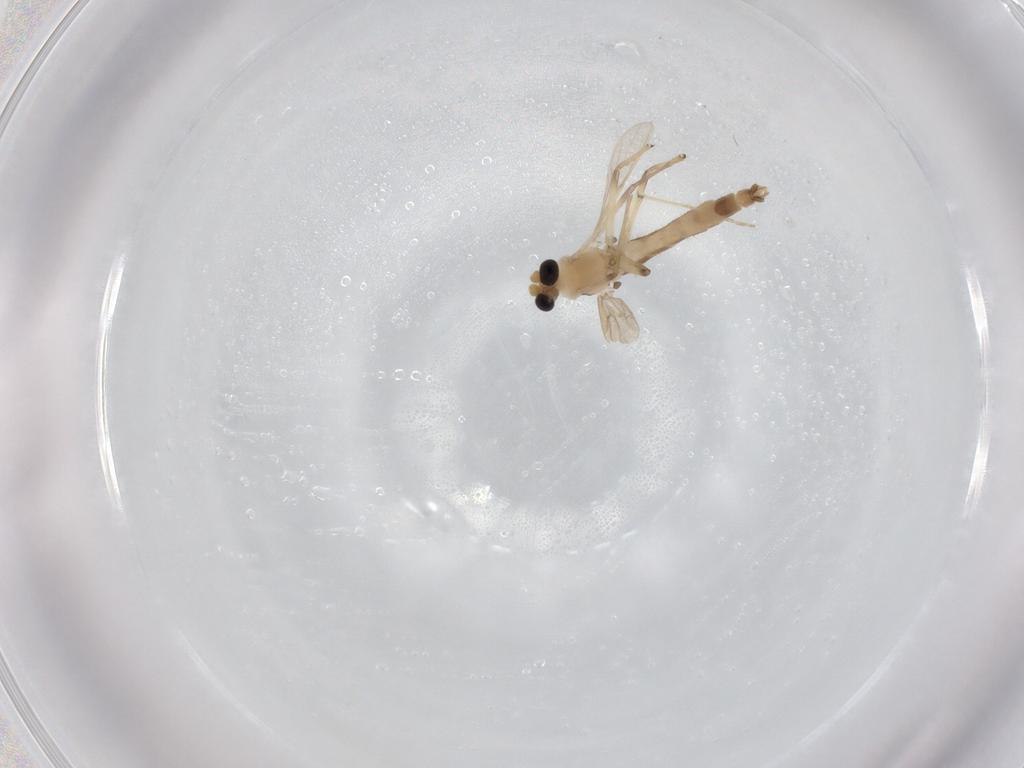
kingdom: Animalia
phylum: Arthropoda
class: Insecta
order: Diptera
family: Chironomidae
